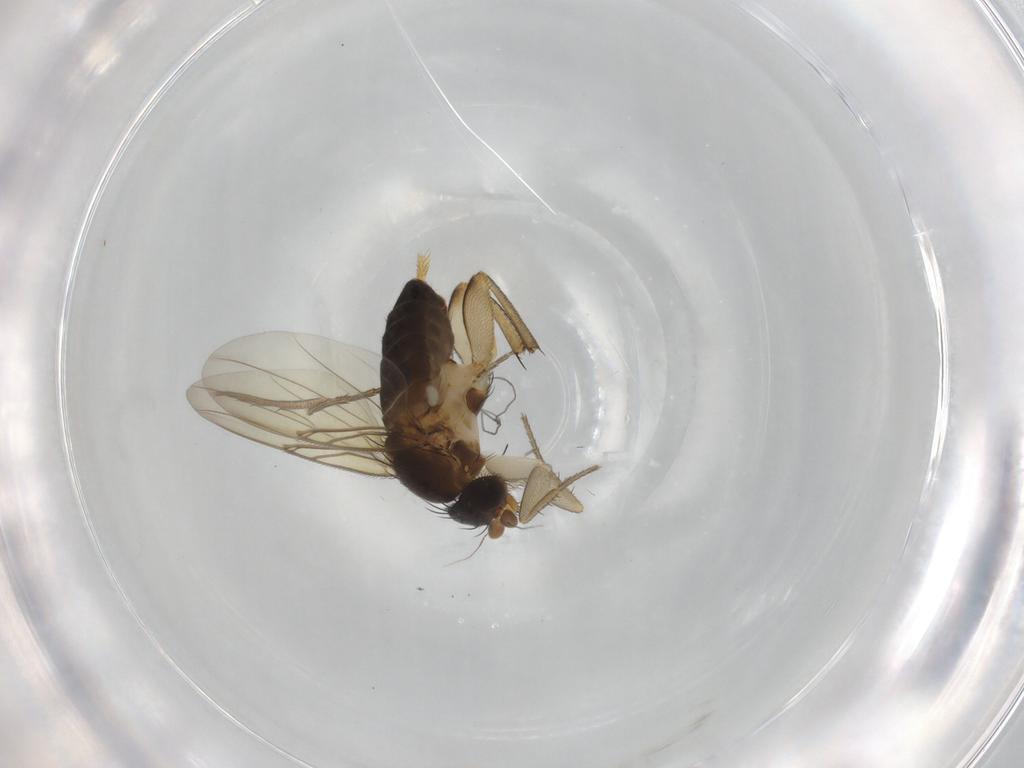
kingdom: Animalia
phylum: Arthropoda
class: Insecta
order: Diptera
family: Phoridae
